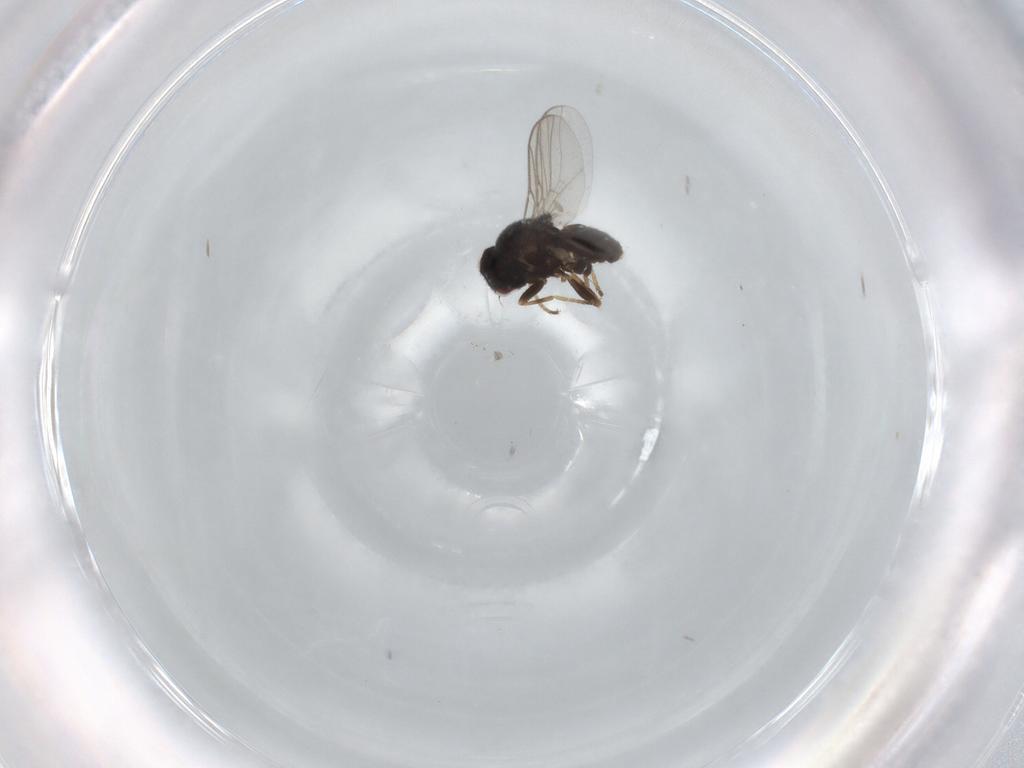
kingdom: Animalia
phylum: Arthropoda
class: Insecta
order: Diptera
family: Chloropidae
